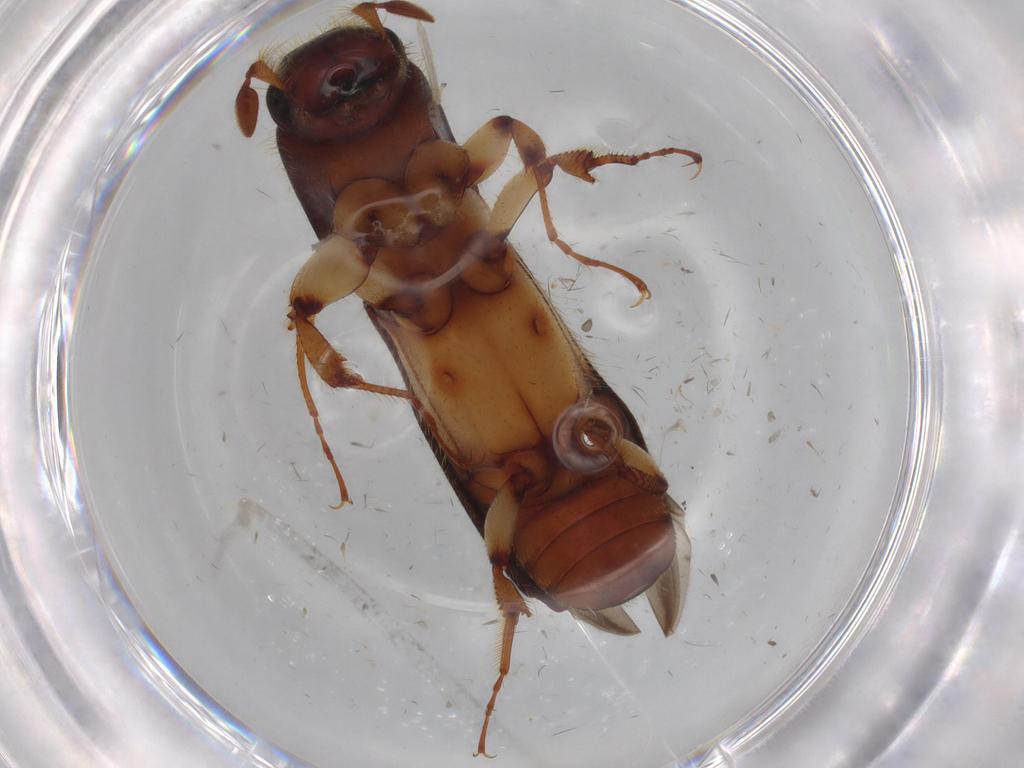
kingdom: Animalia
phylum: Arthropoda
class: Insecta
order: Coleoptera
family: Curculionidae
